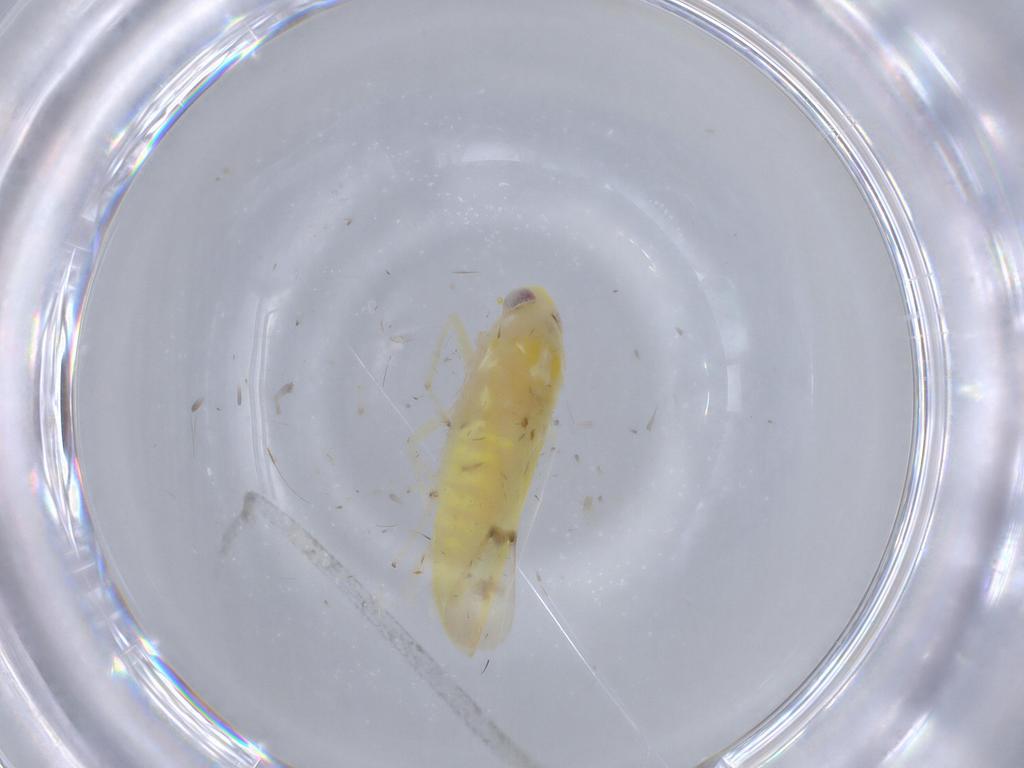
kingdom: Animalia
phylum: Arthropoda
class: Insecta
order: Hemiptera
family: Cicadellidae
